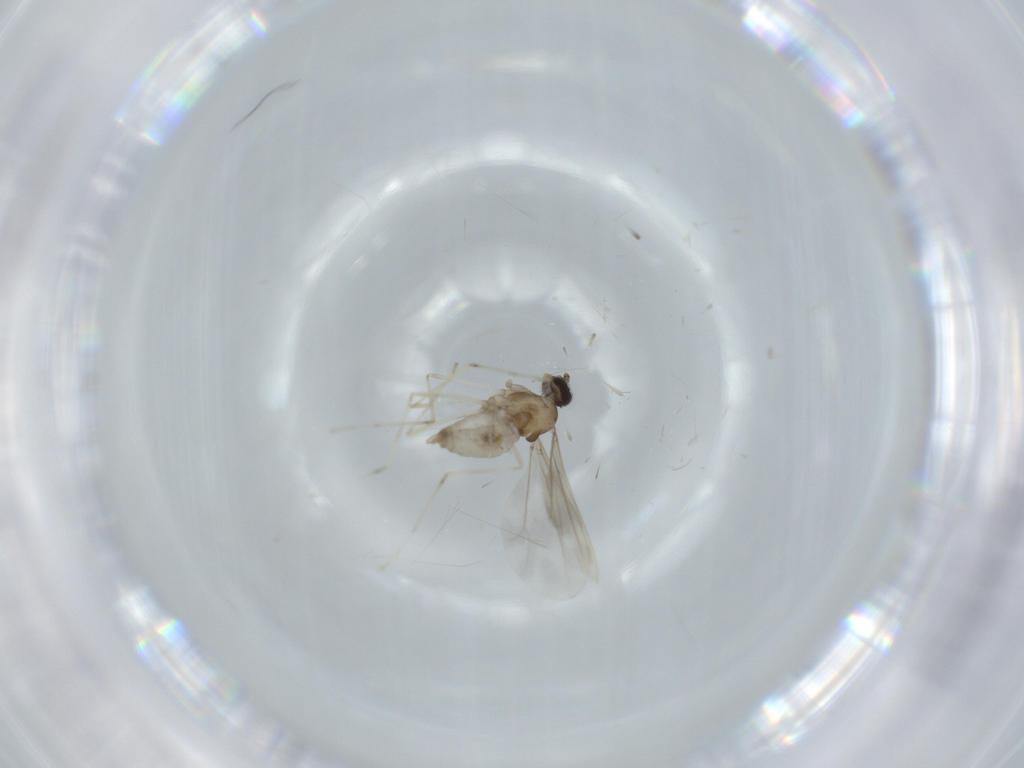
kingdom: Animalia
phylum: Arthropoda
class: Insecta
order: Diptera
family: Cecidomyiidae
